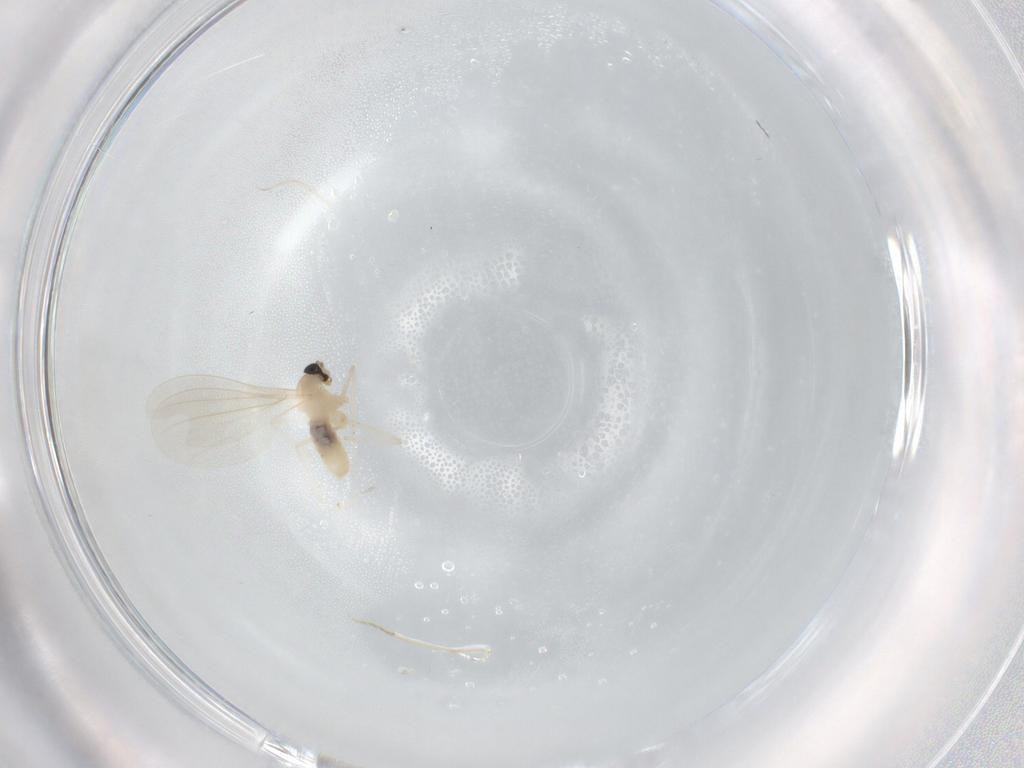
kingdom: Animalia
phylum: Arthropoda
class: Insecta
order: Diptera
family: Cecidomyiidae
